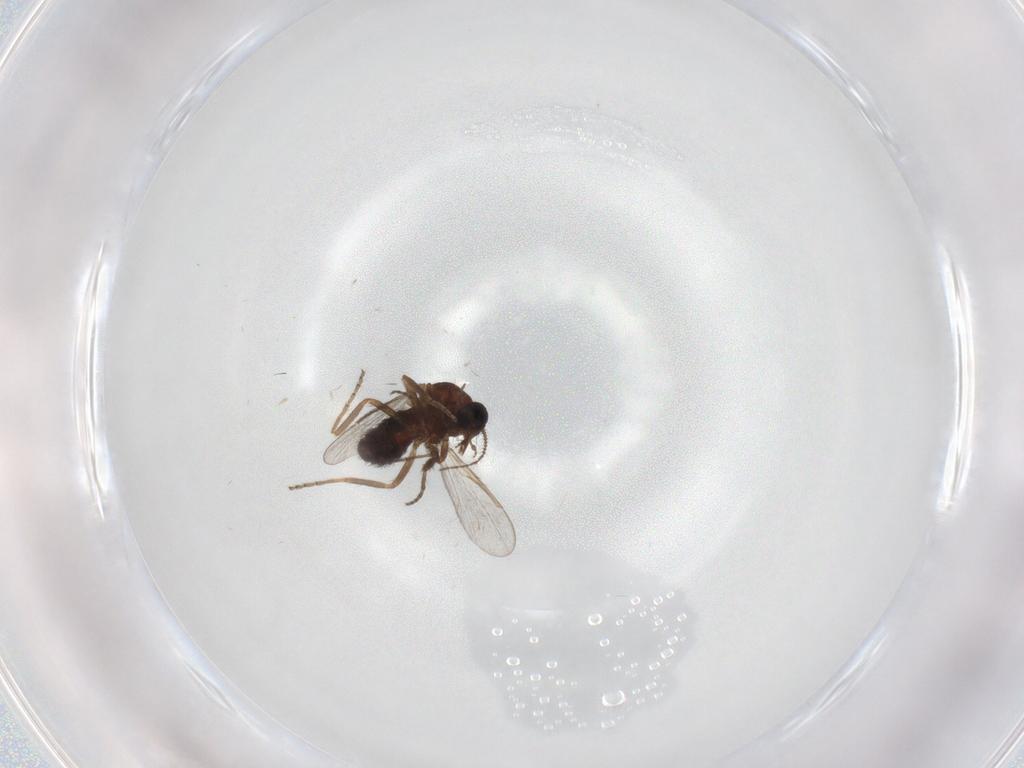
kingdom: Animalia
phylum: Arthropoda
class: Insecta
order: Diptera
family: Ceratopogonidae
